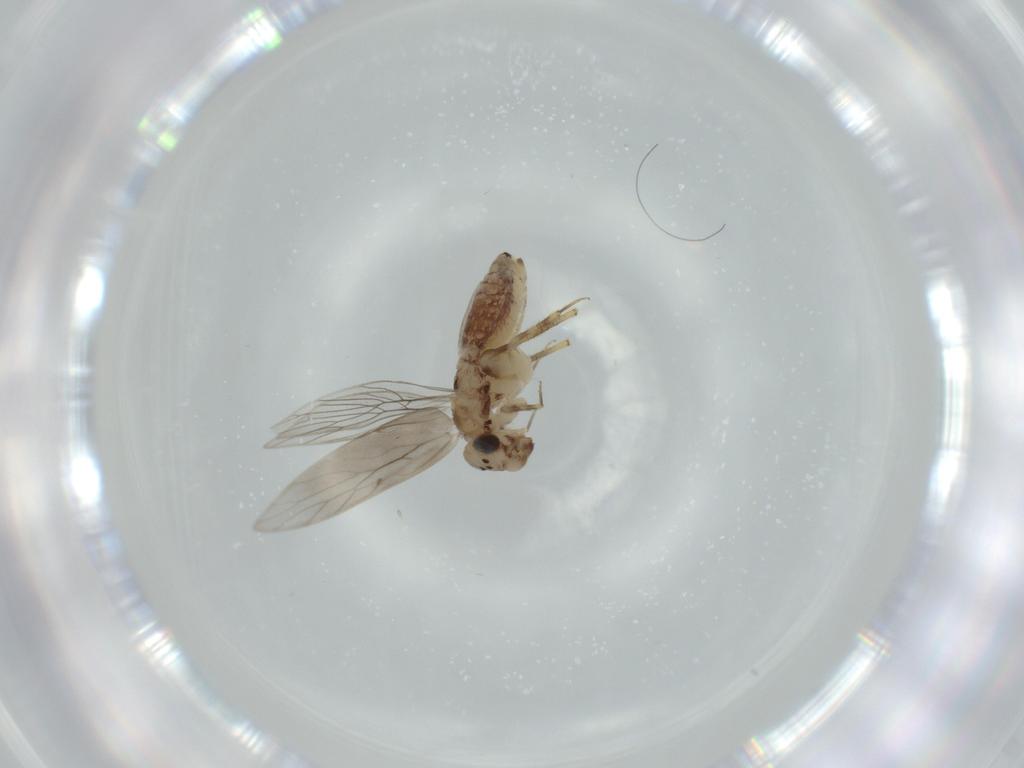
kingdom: Animalia
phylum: Arthropoda
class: Insecta
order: Psocodea
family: Lepidopsocidae
